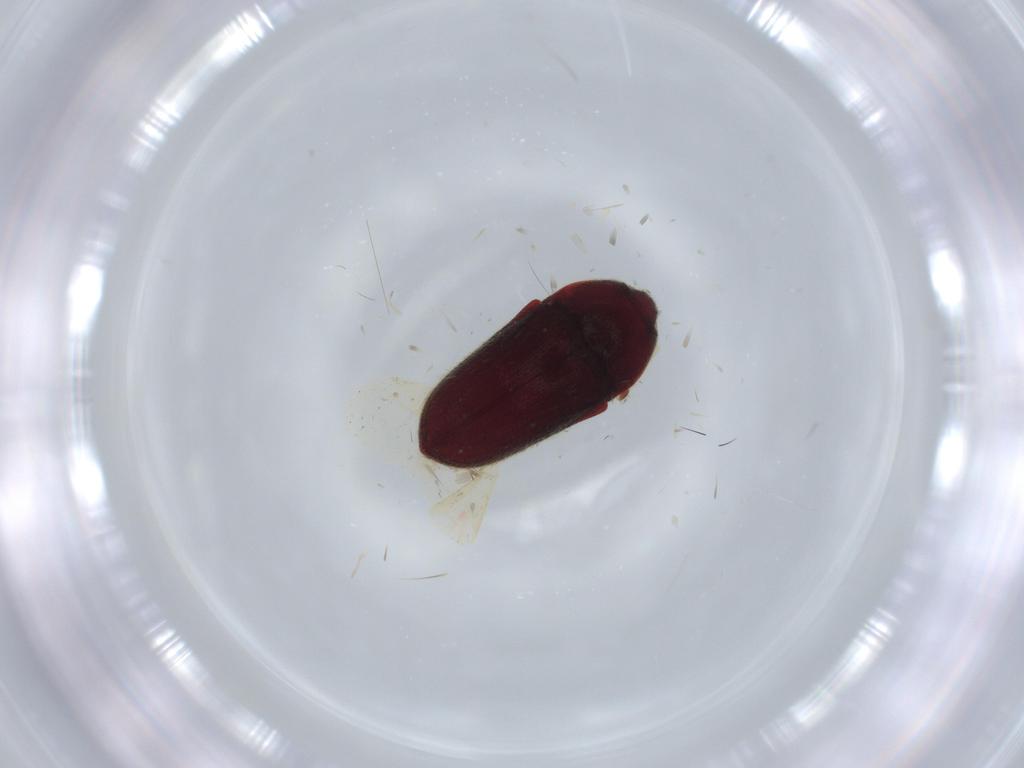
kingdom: Animalia
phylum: Arthropoda
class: Insecta
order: Coleoptera
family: Throscidae
